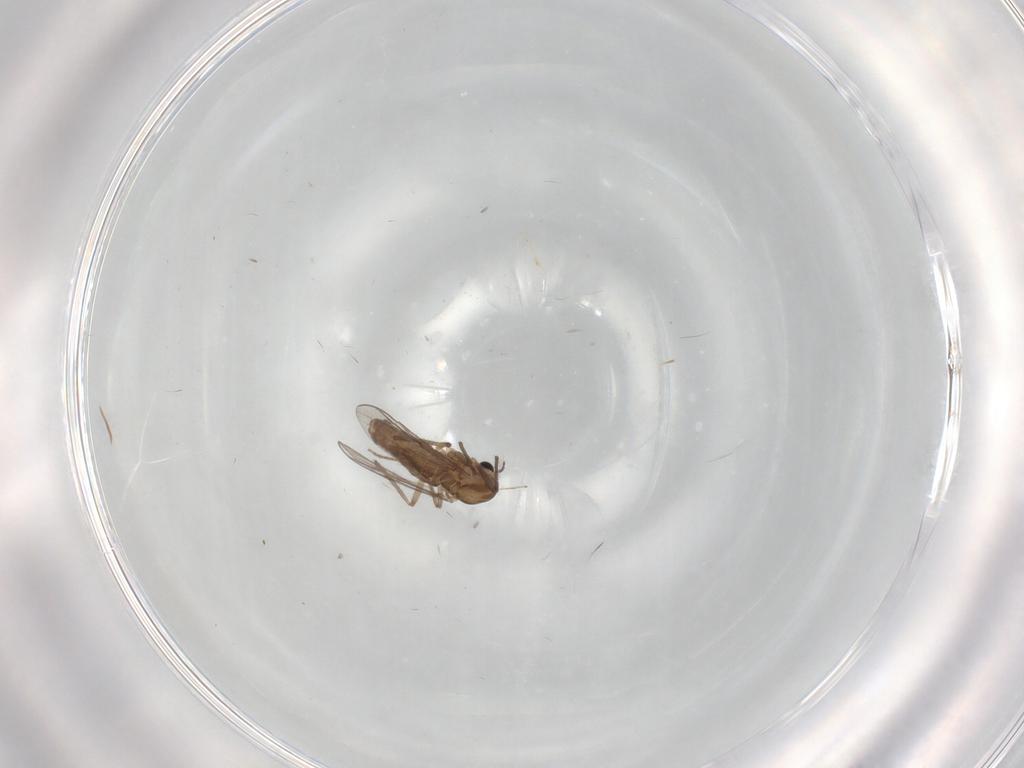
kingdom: Animalia
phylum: Arthropoda
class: Insecta
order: Diptera
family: Chironomidae
